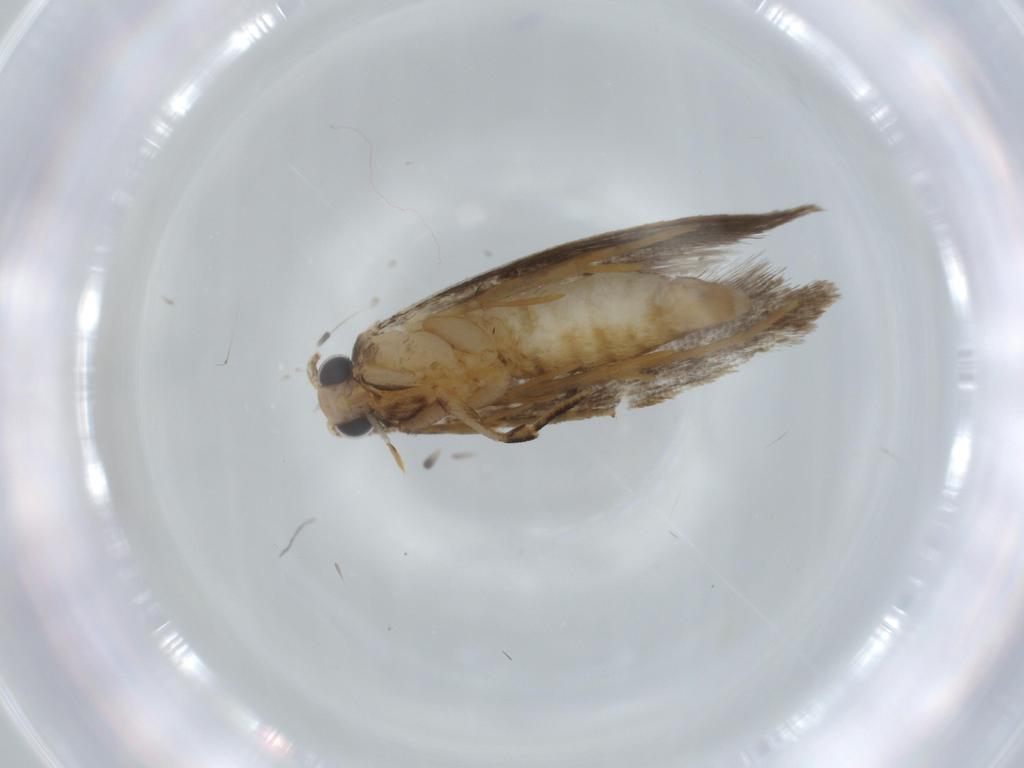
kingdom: Animalia
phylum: Arthropoda
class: Insecta
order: Lepidoptera
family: Tineidae
